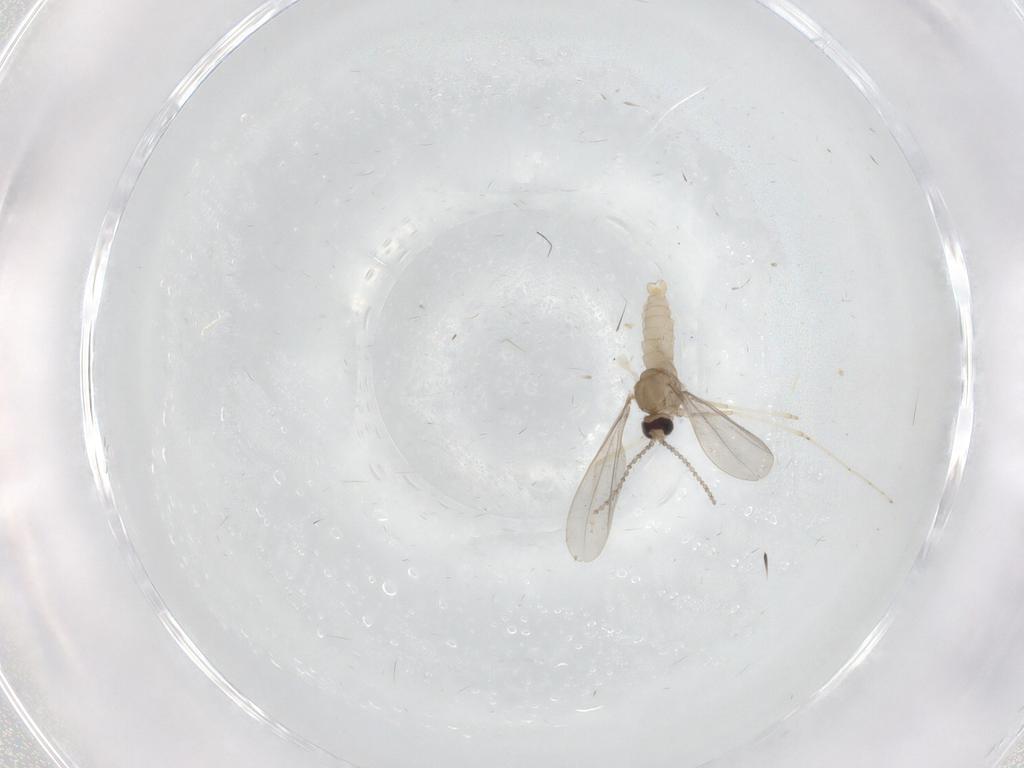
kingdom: Animalia
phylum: Arthropoda
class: Insecta
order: Diptera
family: Cecidomyiidae
